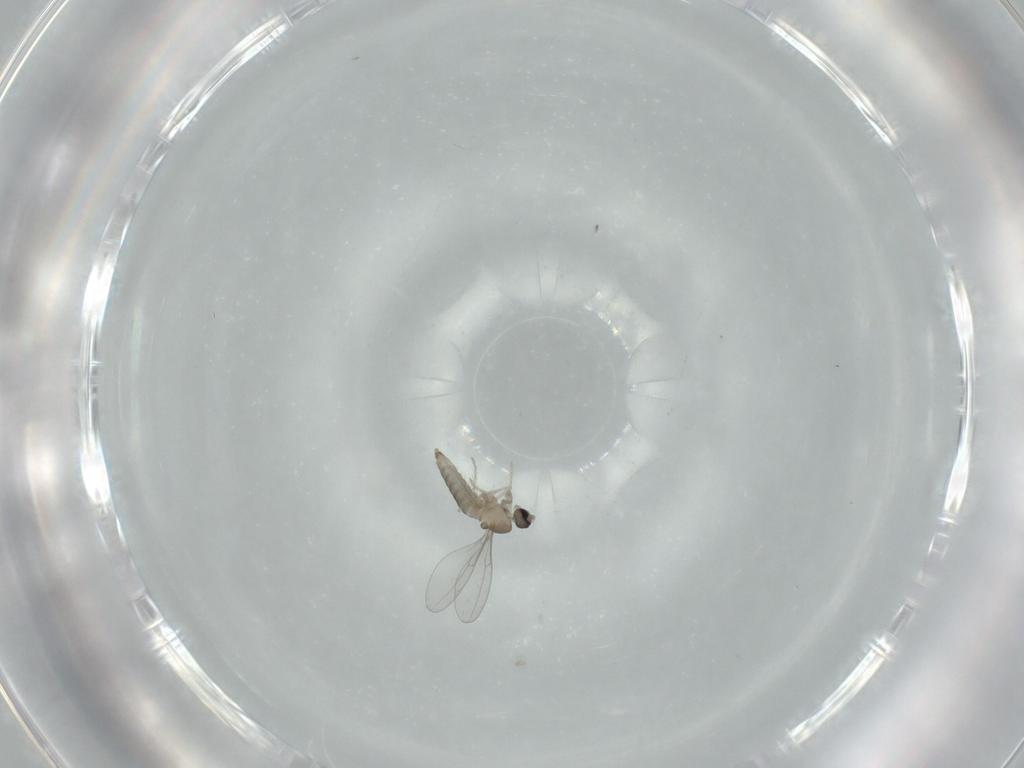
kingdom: Animalia
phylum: Arthropoda
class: Insecta
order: Diptera
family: Cecidomyiidae
